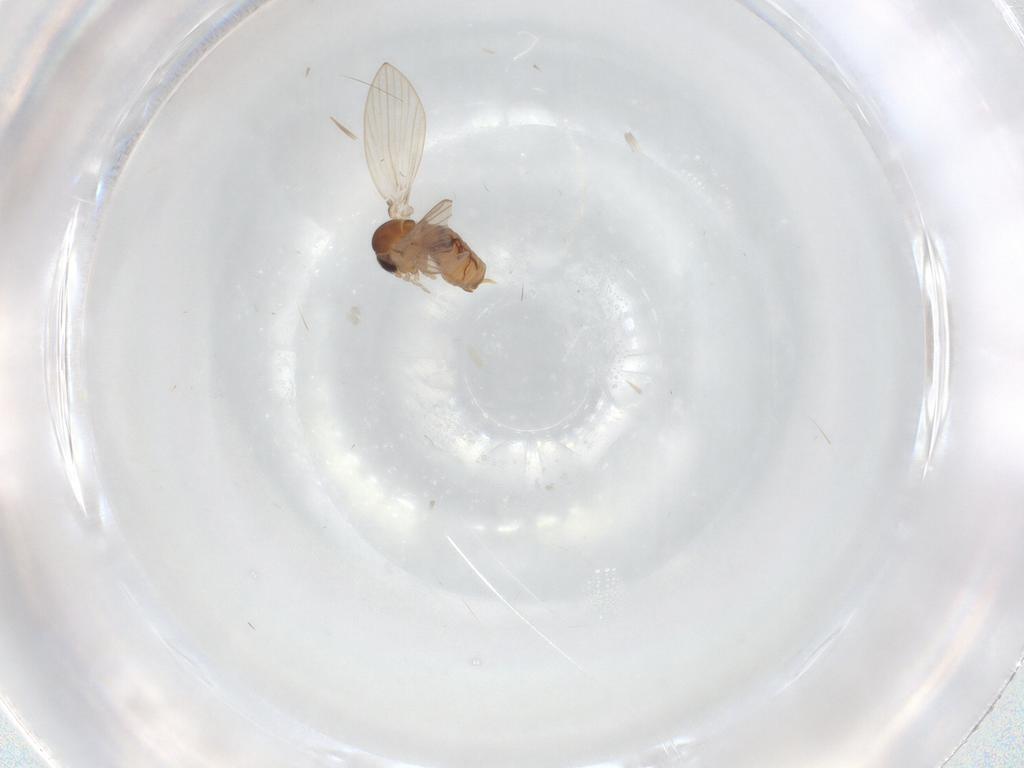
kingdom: Animalia
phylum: Arthropoda
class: Insecta
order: Diptera
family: Psychodidae
